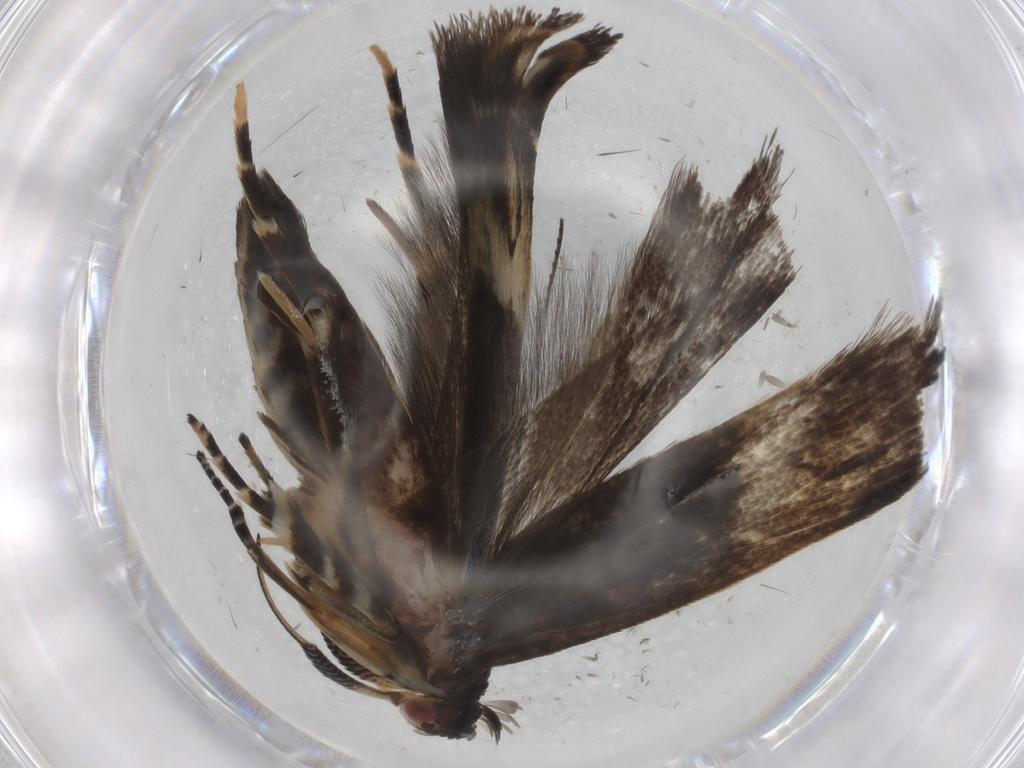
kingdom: Animalia
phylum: Arthropoda
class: Insecta
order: Lepidoptera
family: Gelechiidae
